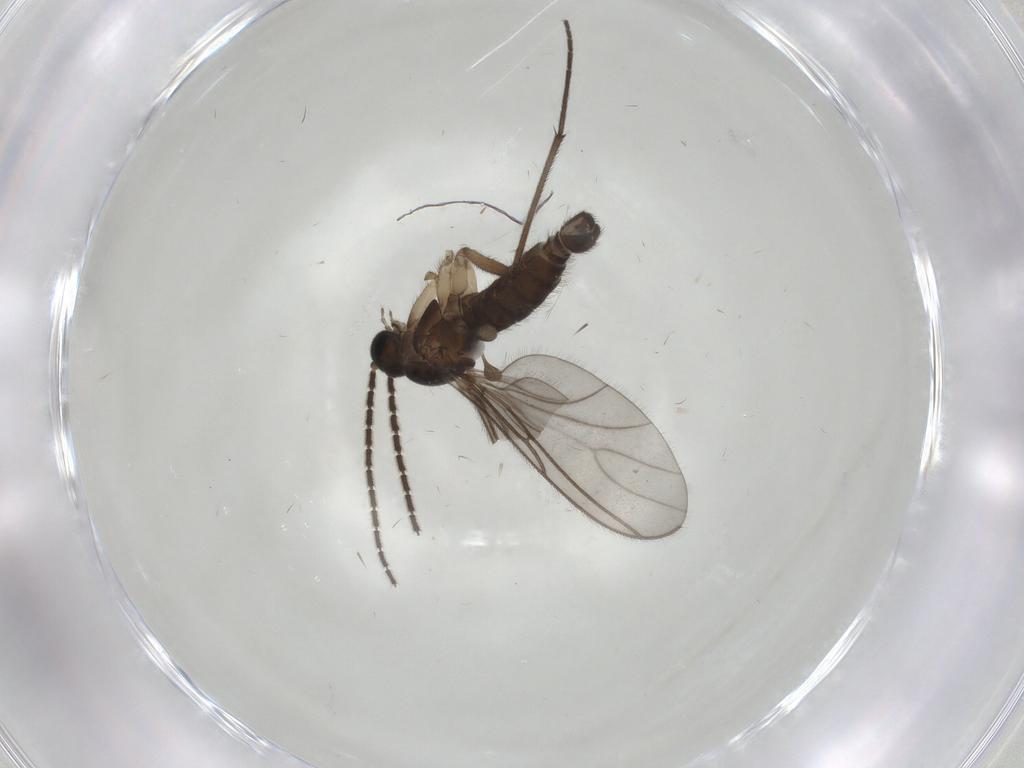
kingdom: Animalia
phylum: Arthropoda
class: Insecta
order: Diptera
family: Sciaridae
